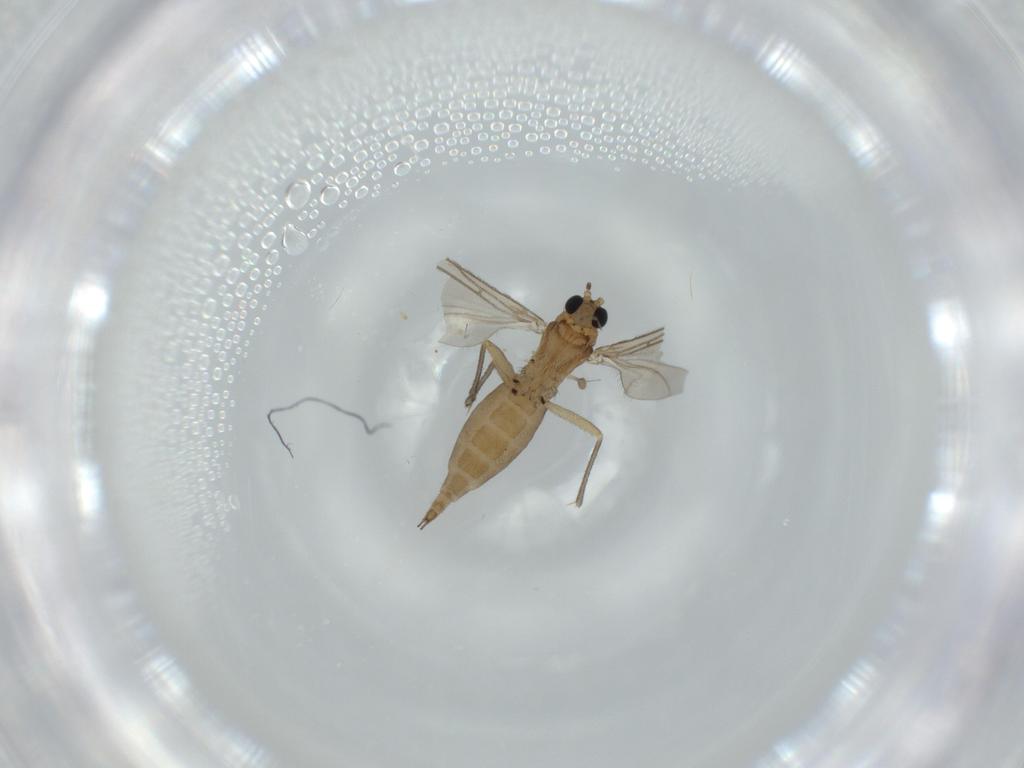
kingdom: Animalia
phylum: Arthropoda
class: Insecta
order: Diptera
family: Sciaridae
